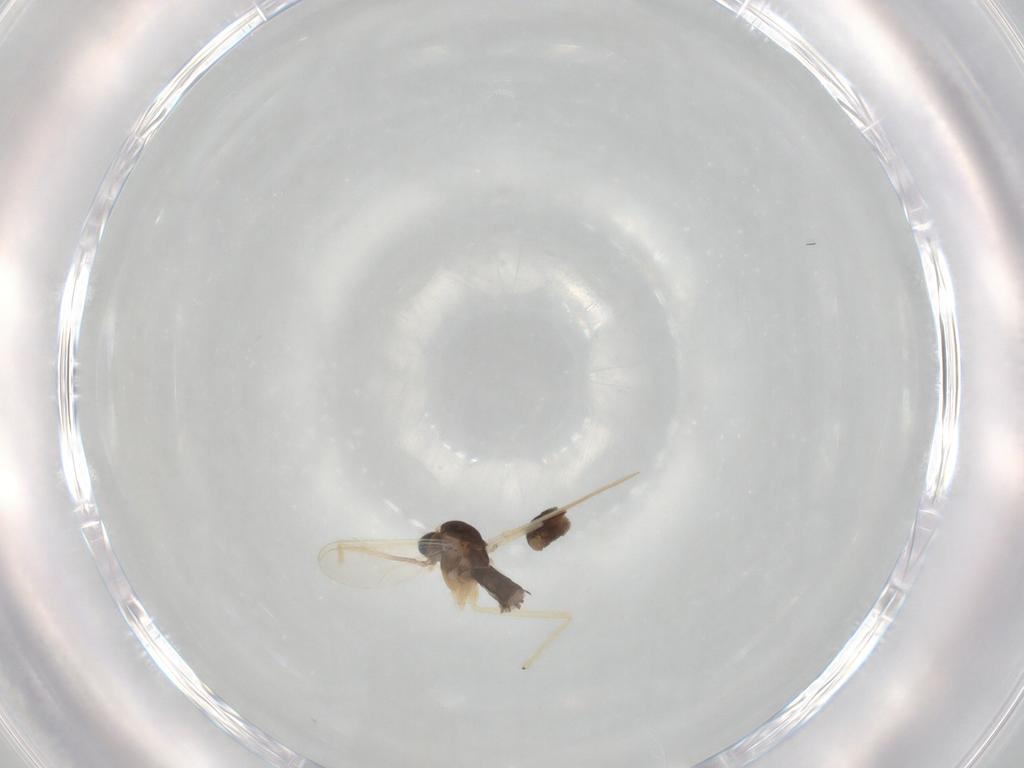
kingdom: Animalia
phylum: Arthropoda
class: Insecta
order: Diptera
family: Chironomidae
